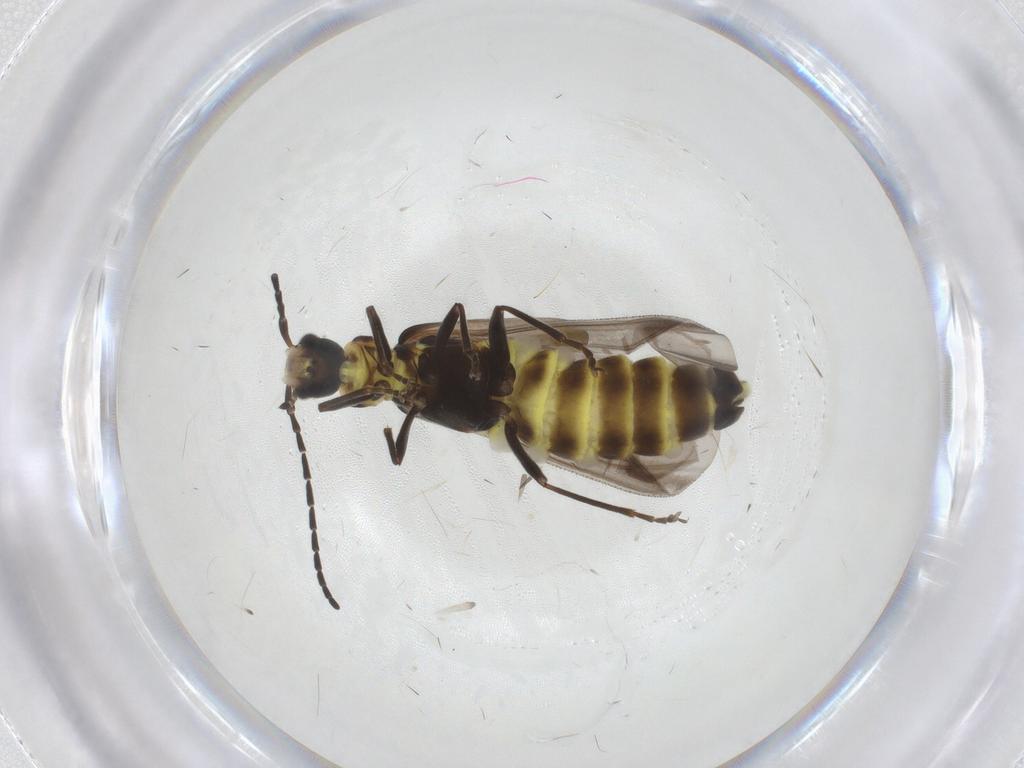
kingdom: Animalia
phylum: Arthropoda
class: Insecta
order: Coleoptera
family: Cantharidae
